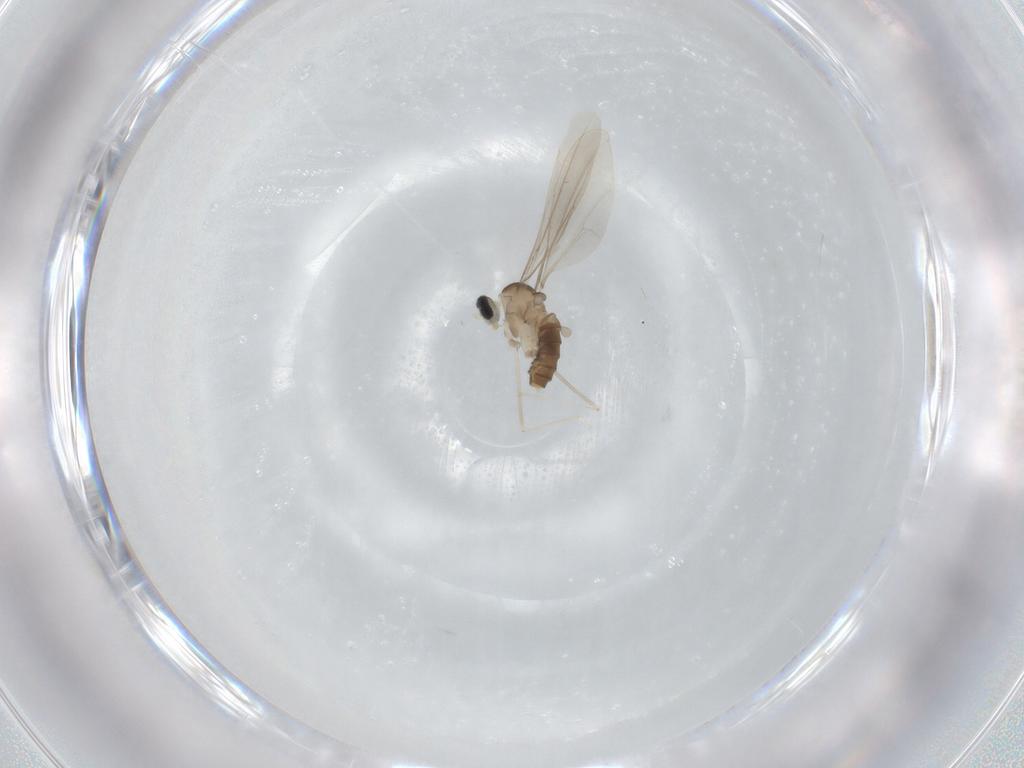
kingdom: Animalia
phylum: Arthropoda
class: Insecta
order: Diptera
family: Cecidomyiidae
